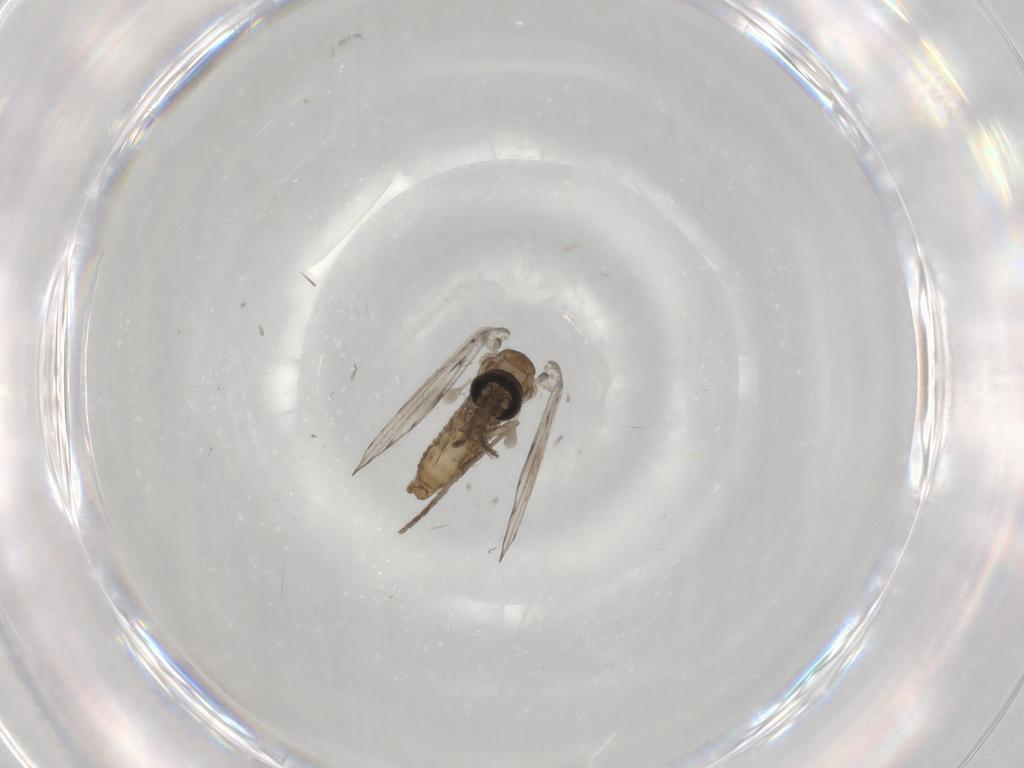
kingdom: Animalia
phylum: Arthropoda
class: Insecta
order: Diptera
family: Psychodidae
